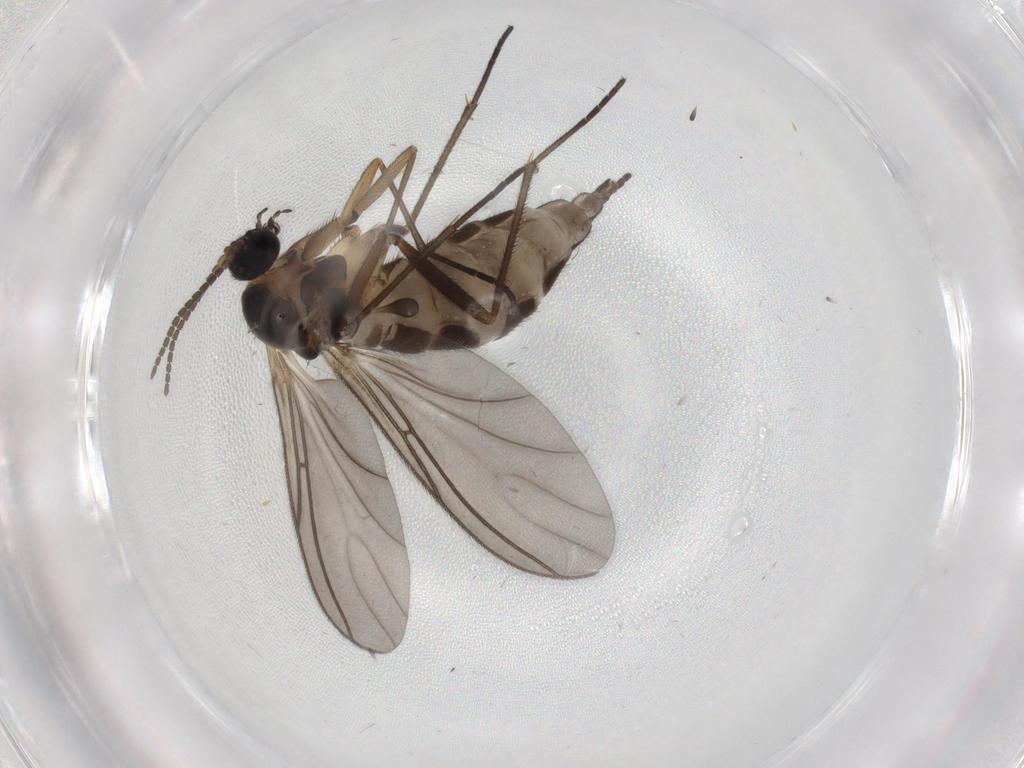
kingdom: Animalia
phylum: Arthropoda
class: Insecta
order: Diptera
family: Sciaridae
